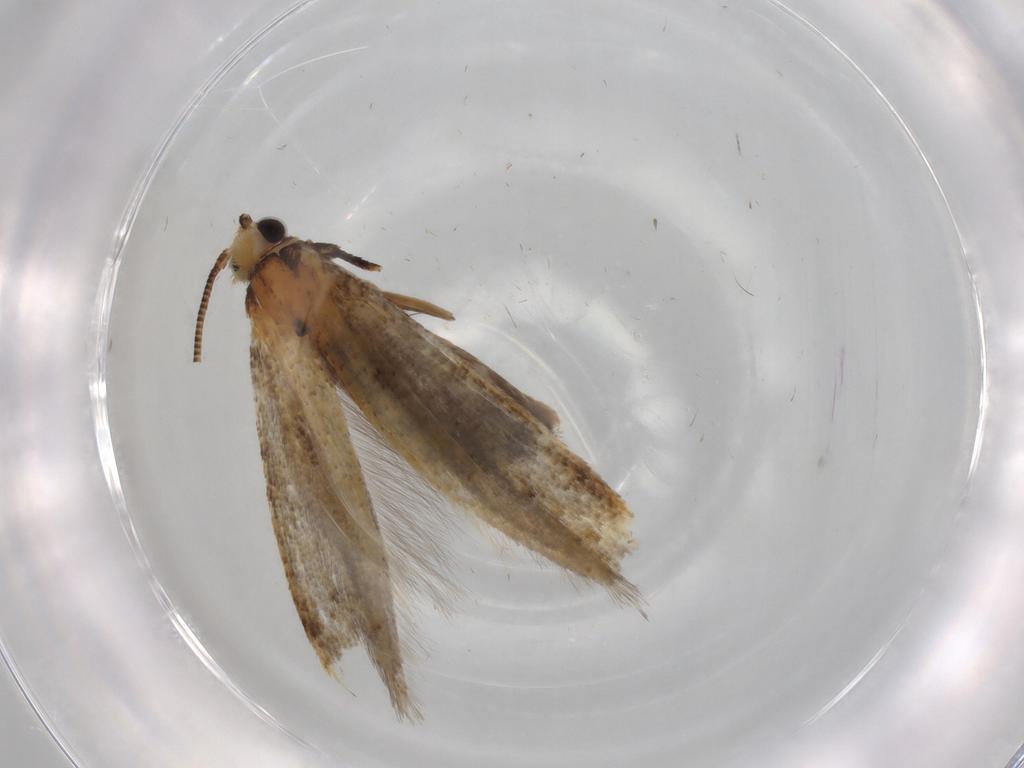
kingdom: Animalia
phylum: Arthropoda
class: Insecta
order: Lepidoptera
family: Tineidae
